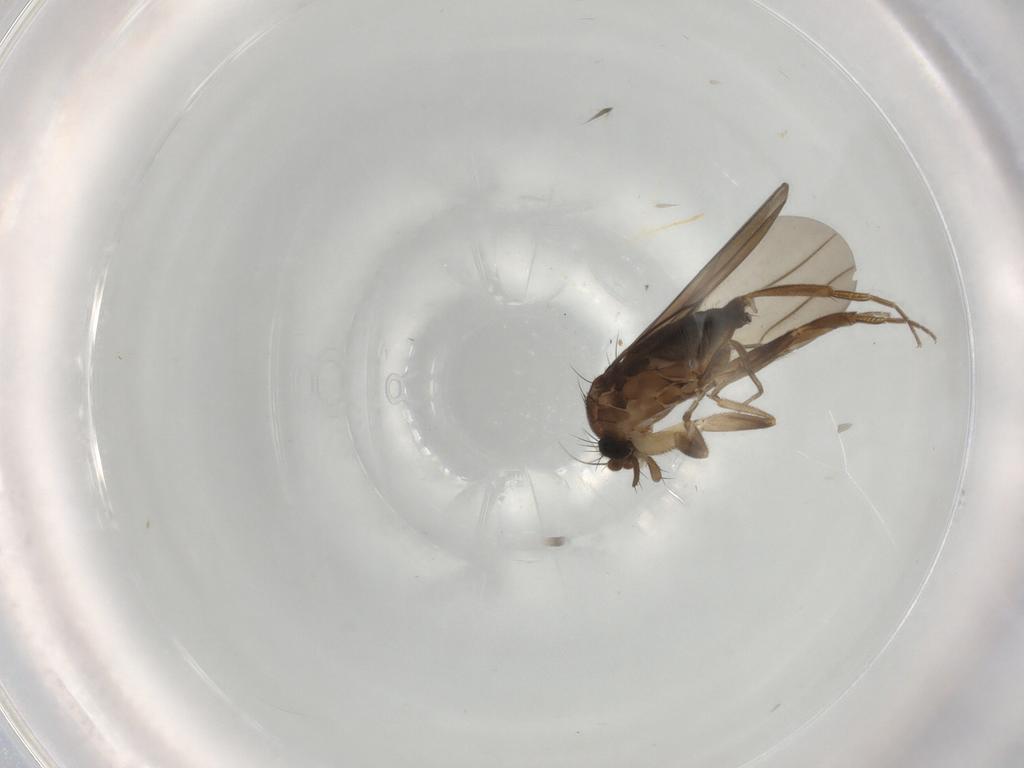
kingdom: Animalia
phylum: Arthropoda
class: Insecta
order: Diptera
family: Phoridae
